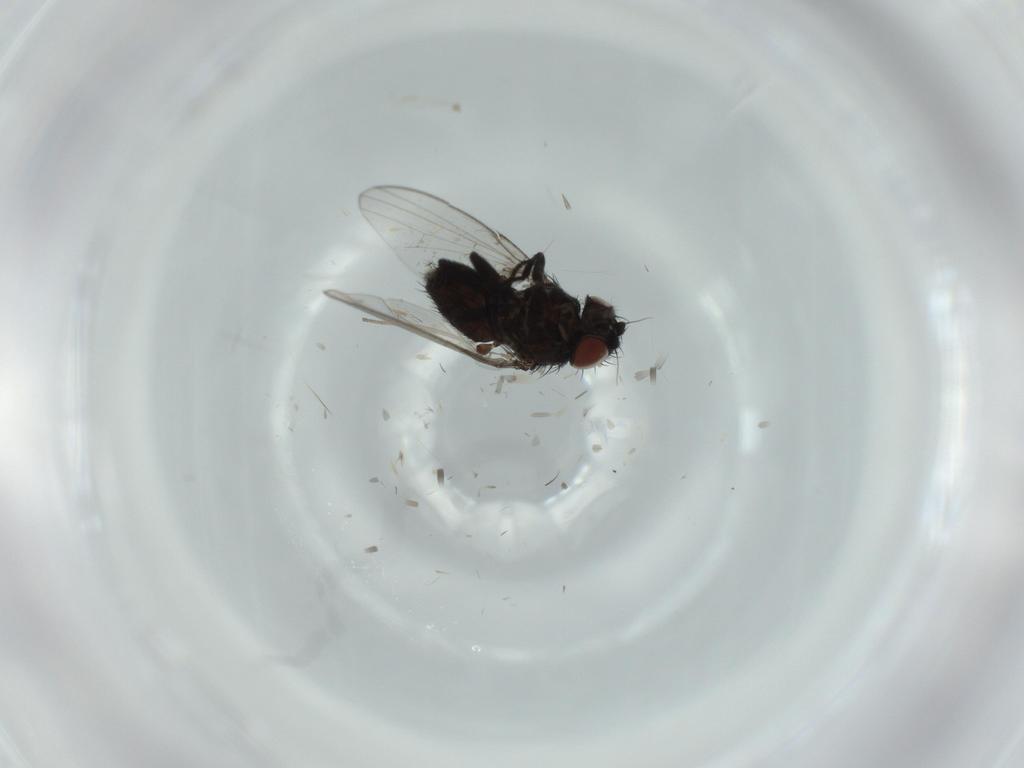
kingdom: Animalia
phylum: Arthropoda
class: Insecta
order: Diptera
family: Milichiidae
